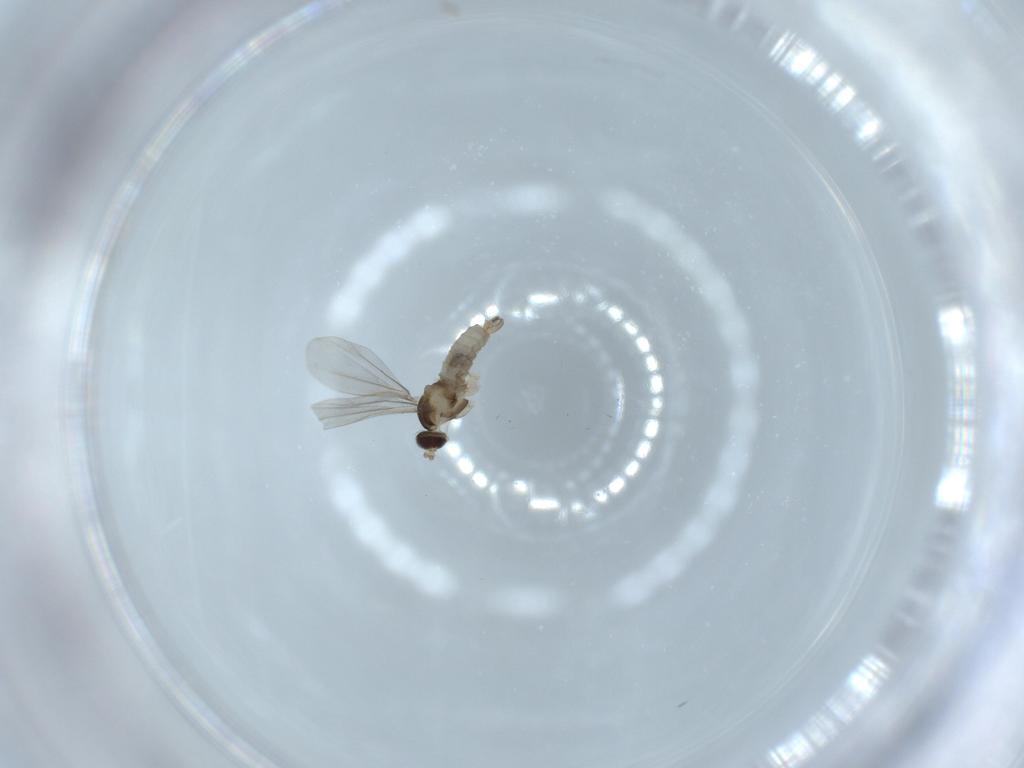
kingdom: Animalia
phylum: Arthropoda
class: Insecta
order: Diptera
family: Cecidomyiidae
